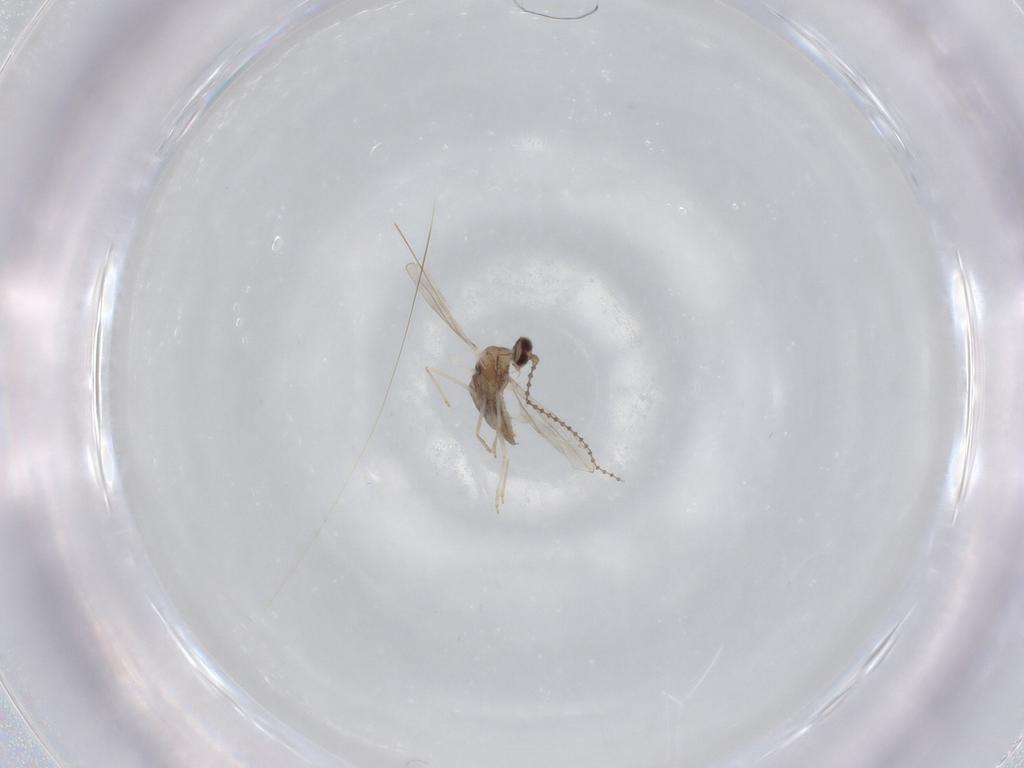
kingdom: Animalia
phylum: Arthropoda
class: Insecta
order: Diptera
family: Cecidomyiidae
